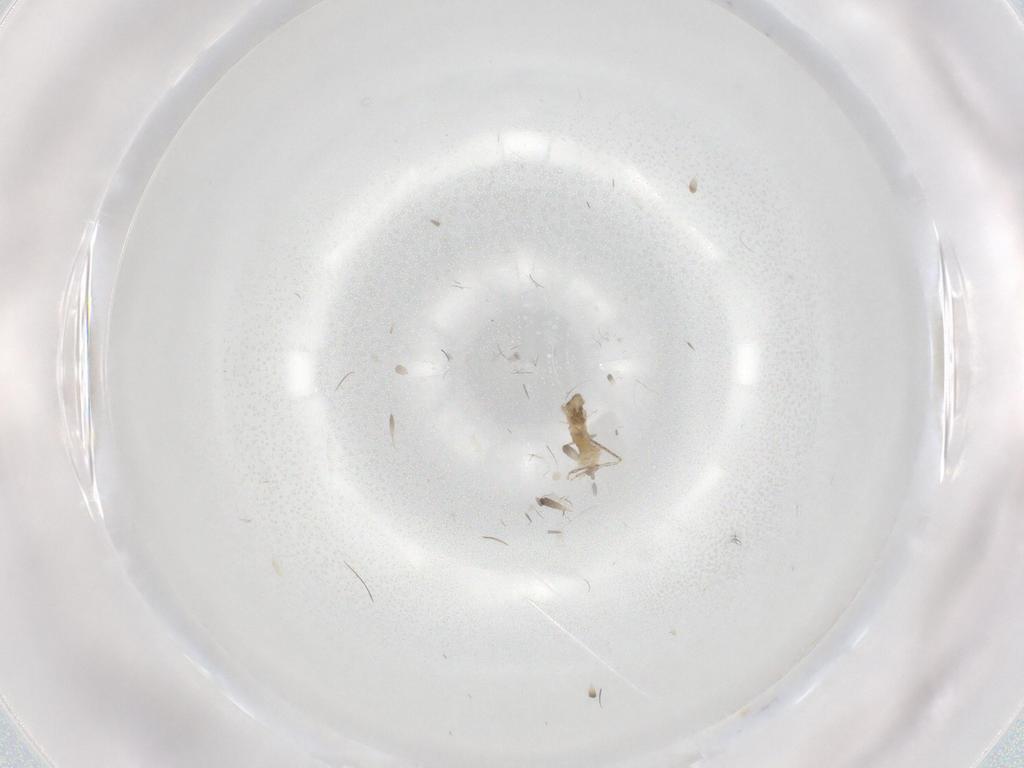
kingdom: Animalia
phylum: Arthropoda
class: Insecta
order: Diptera
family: Cecidomyiidae
